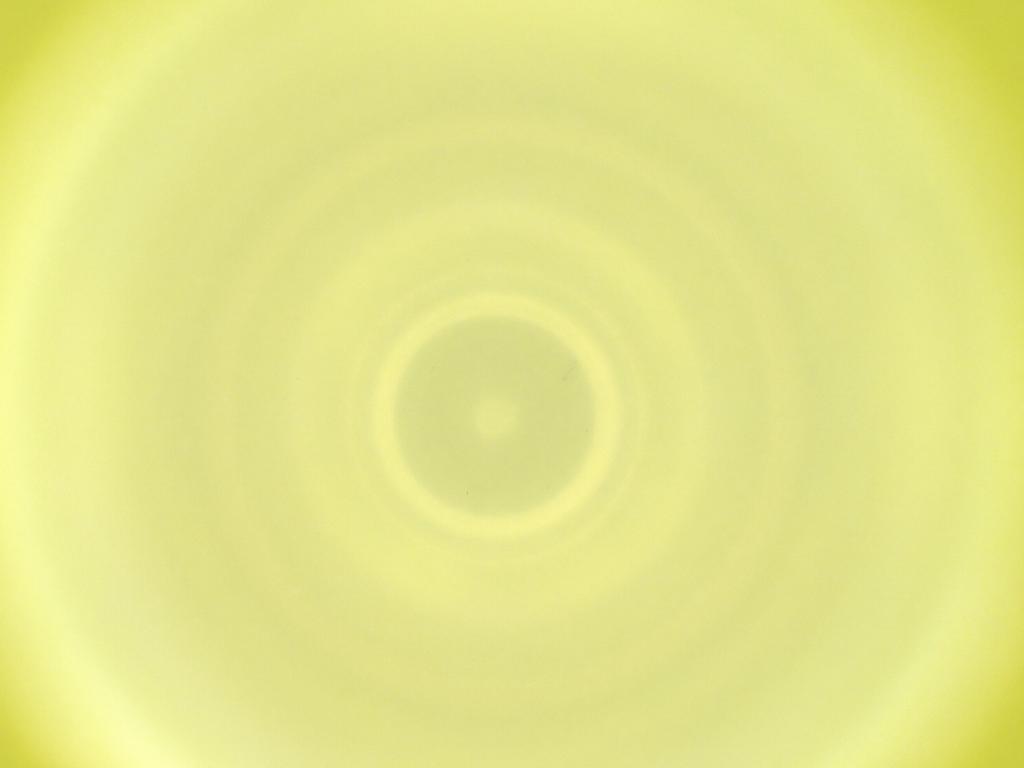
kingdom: Animalia
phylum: Arthropoda
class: Insecta
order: Diptera
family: Cecidomyiidae
